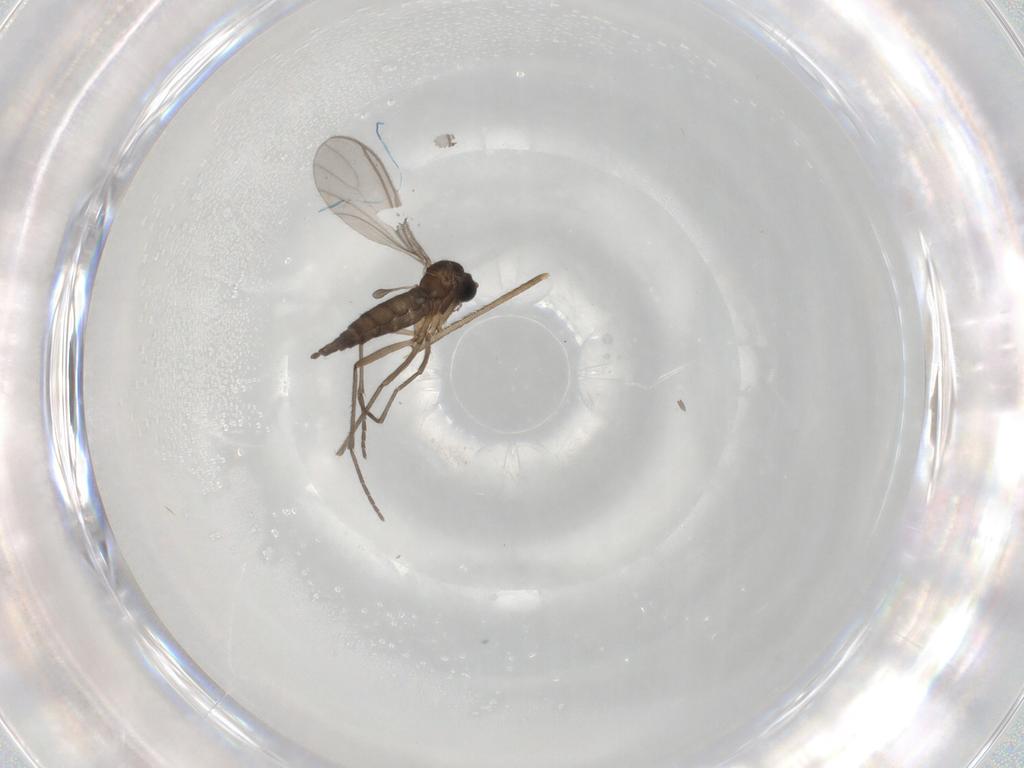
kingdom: Animalia
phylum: Arthropoda
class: Insecta
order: Diptera
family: Sciaridae
